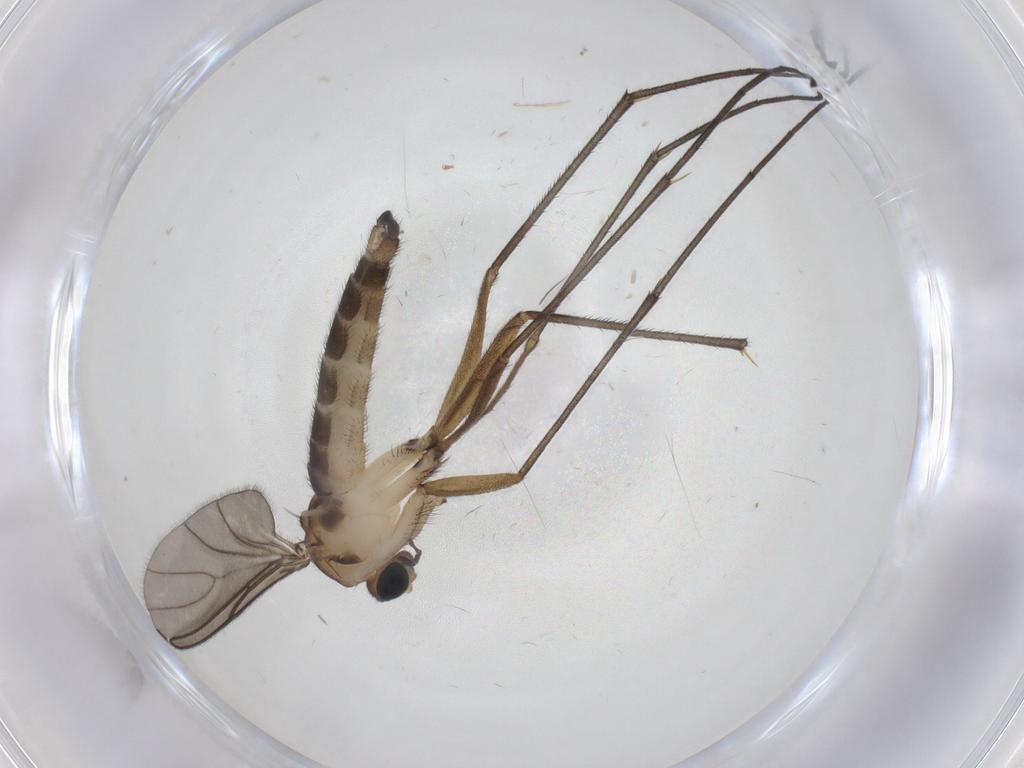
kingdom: Animalia
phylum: Arthropoda
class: Insecta
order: Diptera
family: Sciaridae
